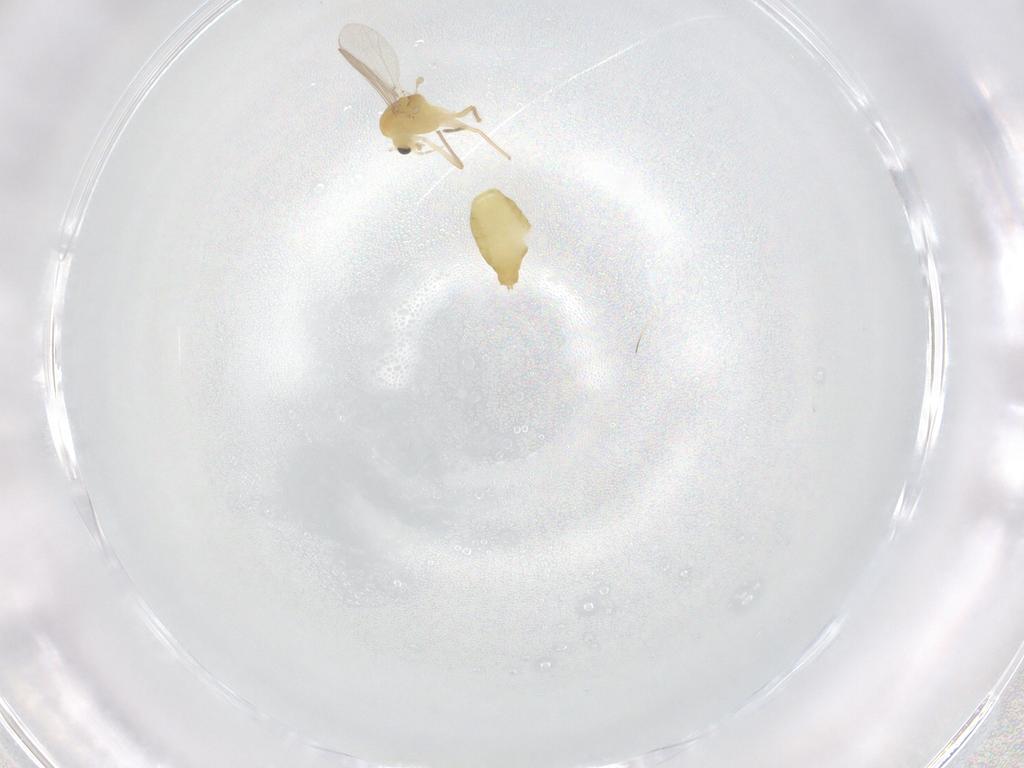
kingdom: Animalia
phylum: Arthropoda
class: Insecta
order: Diptera
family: Chironomidae
